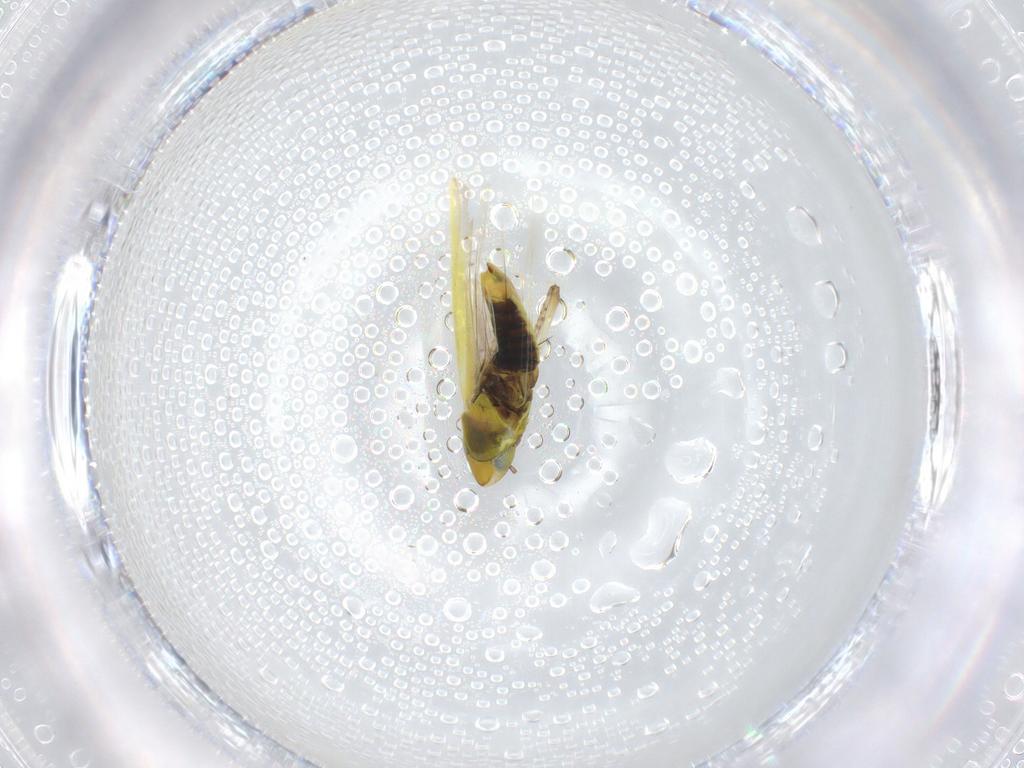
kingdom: Animalia
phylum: Arthropoda
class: Insecta
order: Hemiptera
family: Cicadellidae
